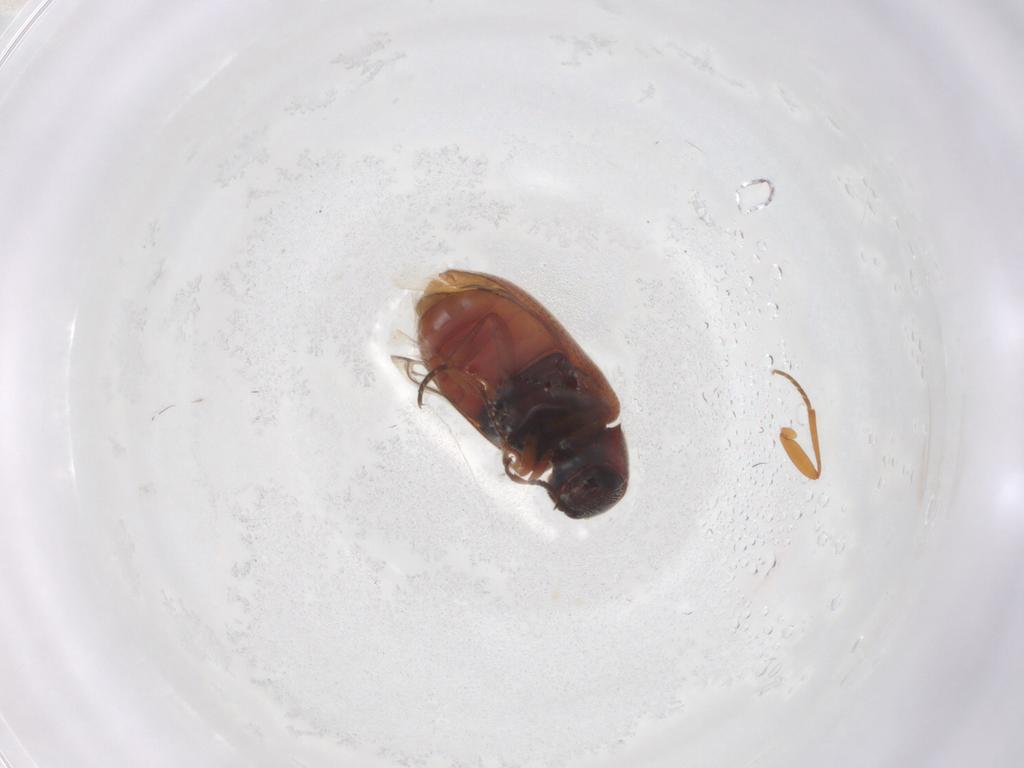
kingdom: Animalia
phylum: Arthropoda
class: Insecta
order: Coleoptera
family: Rhadalidae
